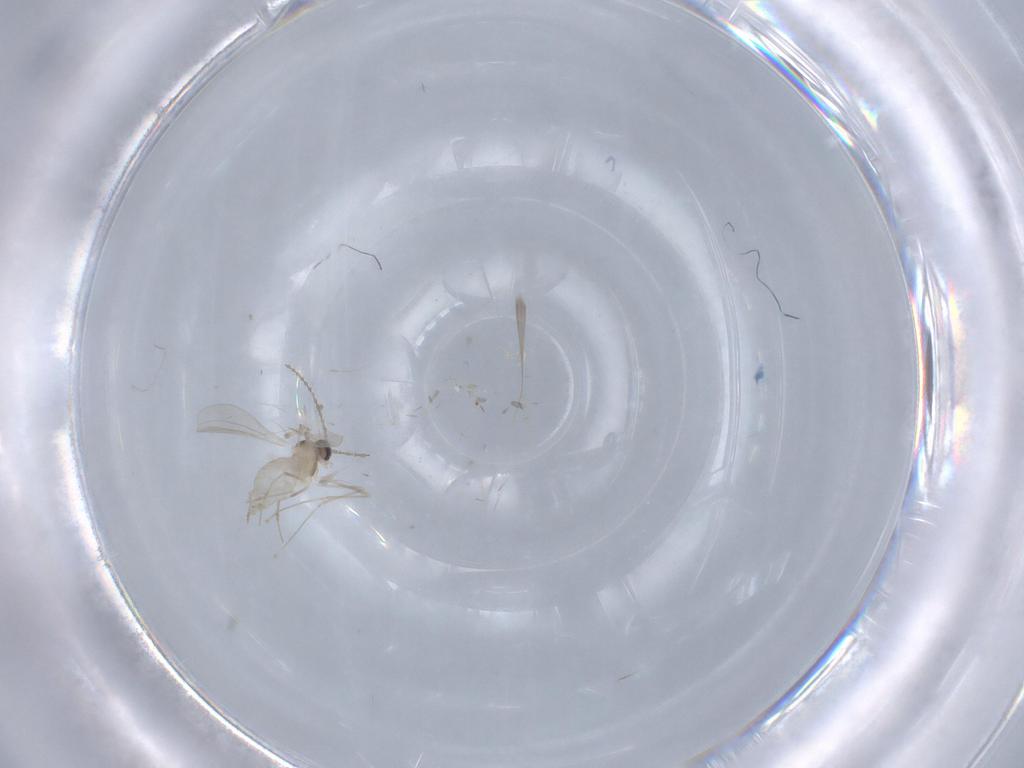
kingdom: Animalia
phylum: Arthropoda
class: Insecta
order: Diptera
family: Cecidomyiidae
